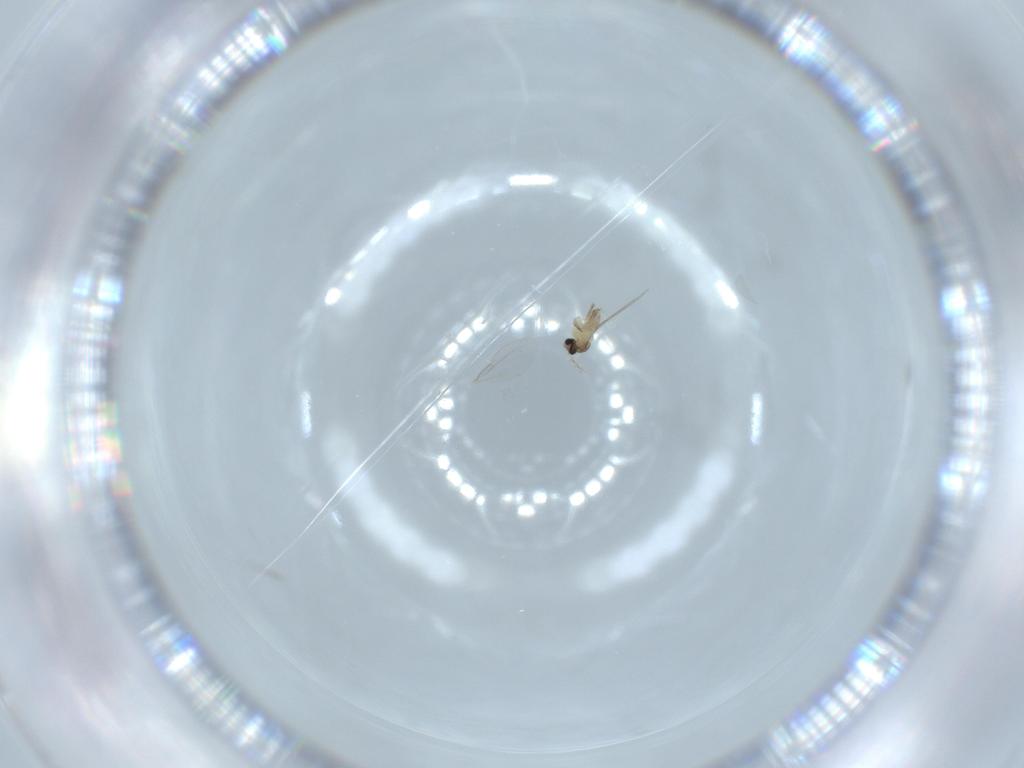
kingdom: Animalia
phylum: Arthropoda
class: Insecta
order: Diptera
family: Cecidomyiidae
